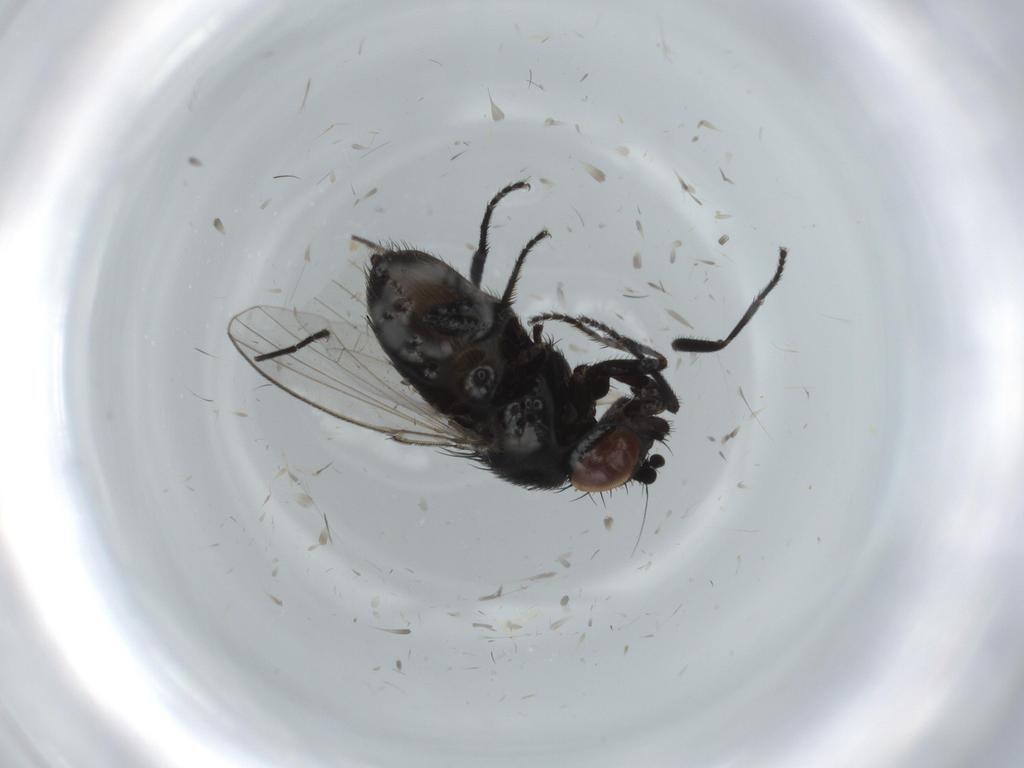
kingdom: Animalia
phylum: Arthropoda
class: Insecta
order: Diptera
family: Milichiidae
